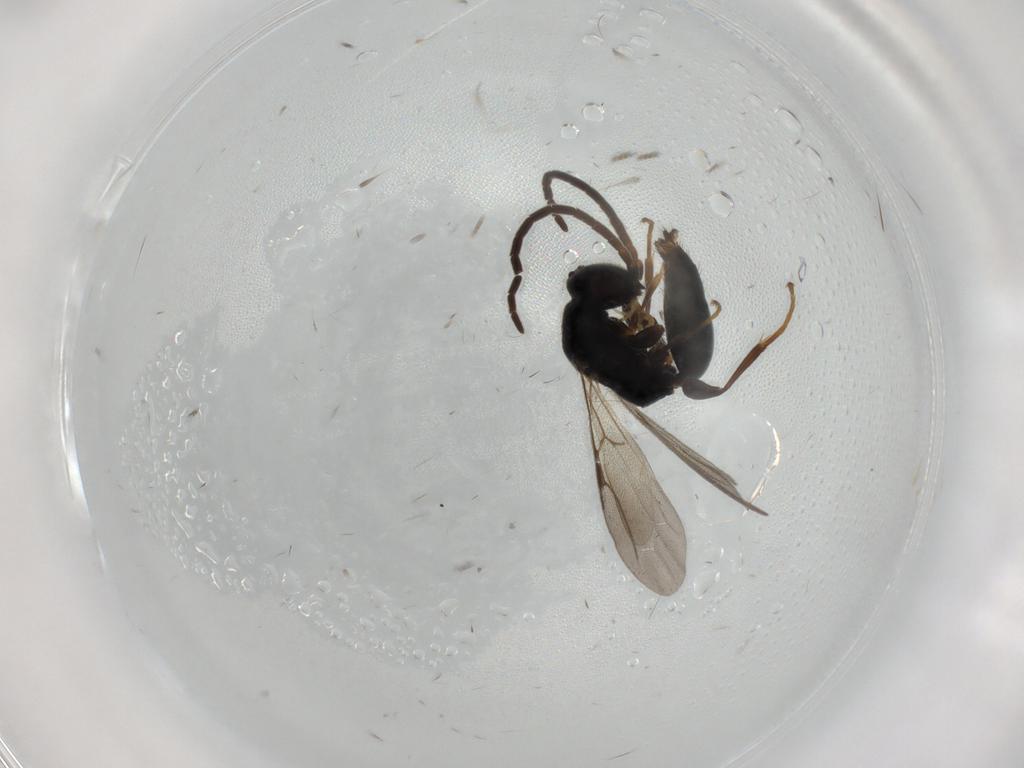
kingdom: Animalia
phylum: Arthropoda
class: Insecta
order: Hymenoptera
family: Bethylidae
